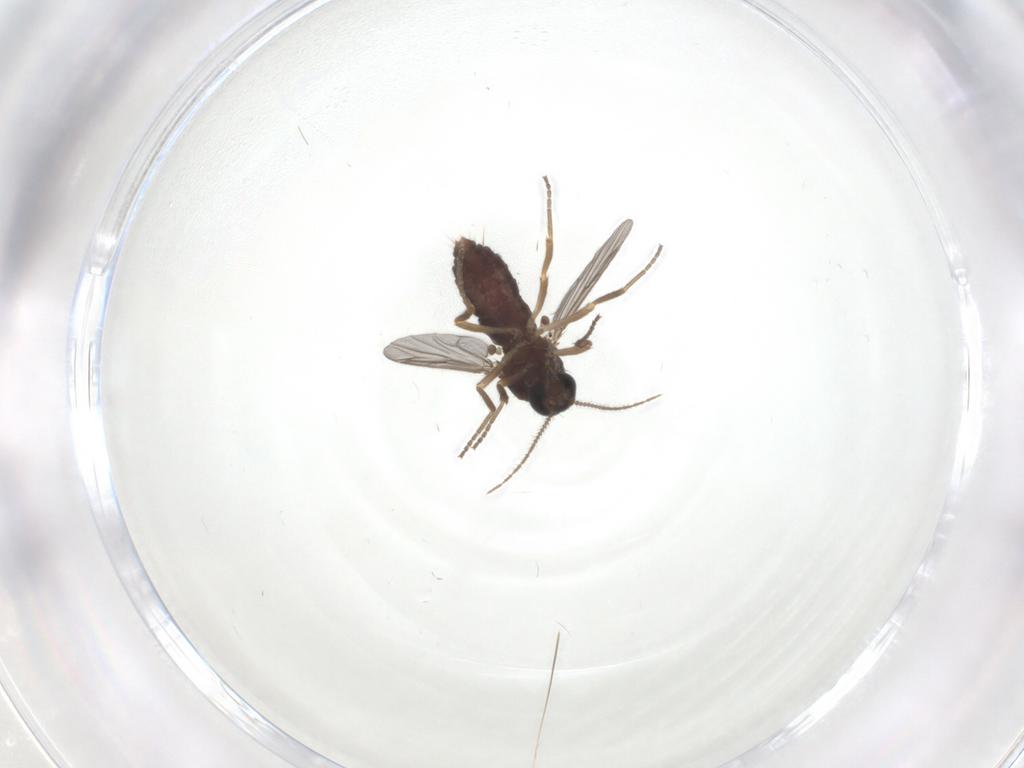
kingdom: Animalia
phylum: Arthropoda
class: Insecta
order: Diptera
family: Ceratopogonidae
